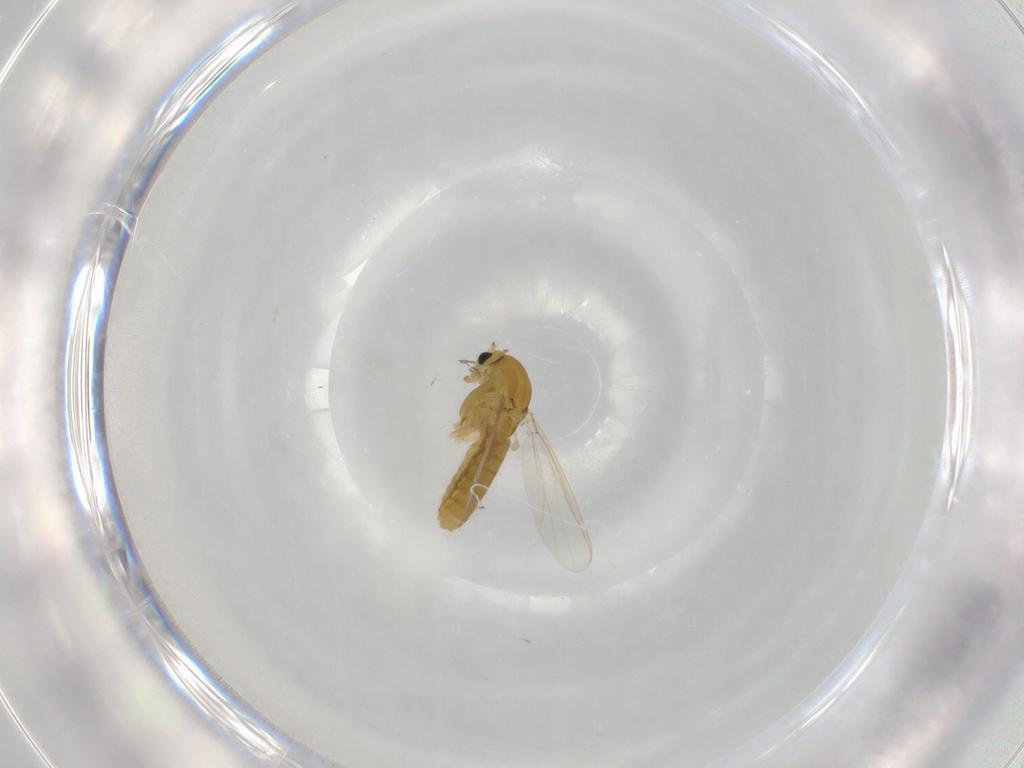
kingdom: Animalia
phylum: Arthropoda
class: Insecta
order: Diptera
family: Chironomidae
